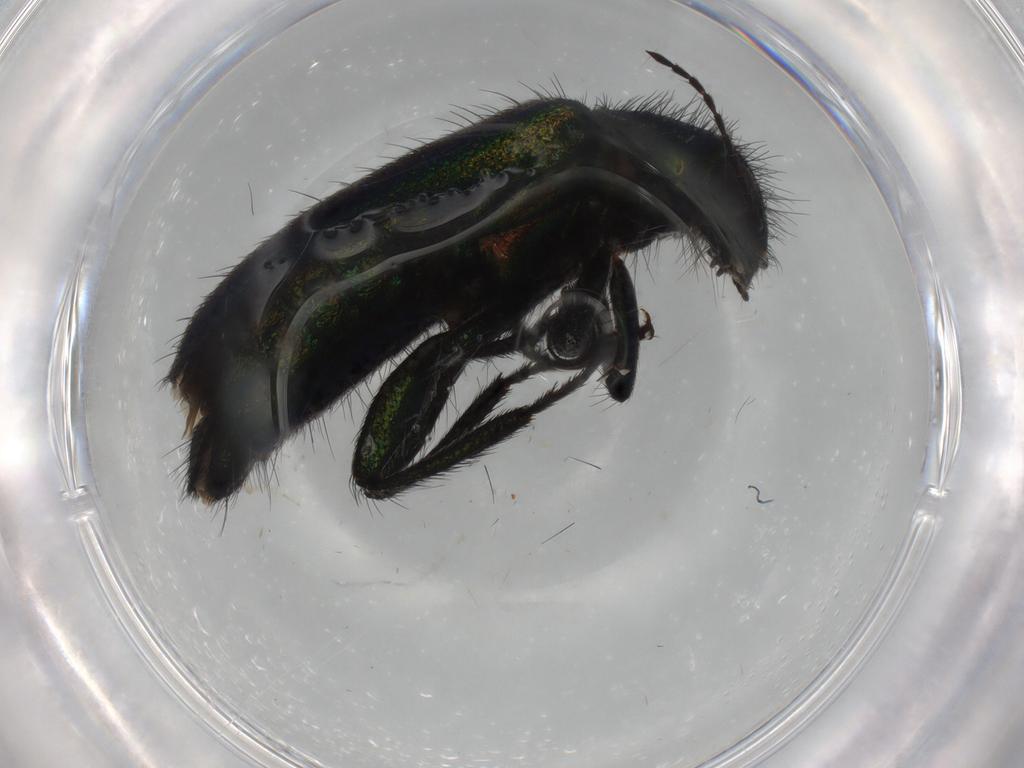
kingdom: Animalia
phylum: Arthropoda
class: Insecta
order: Coleoptera
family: Melyridae
